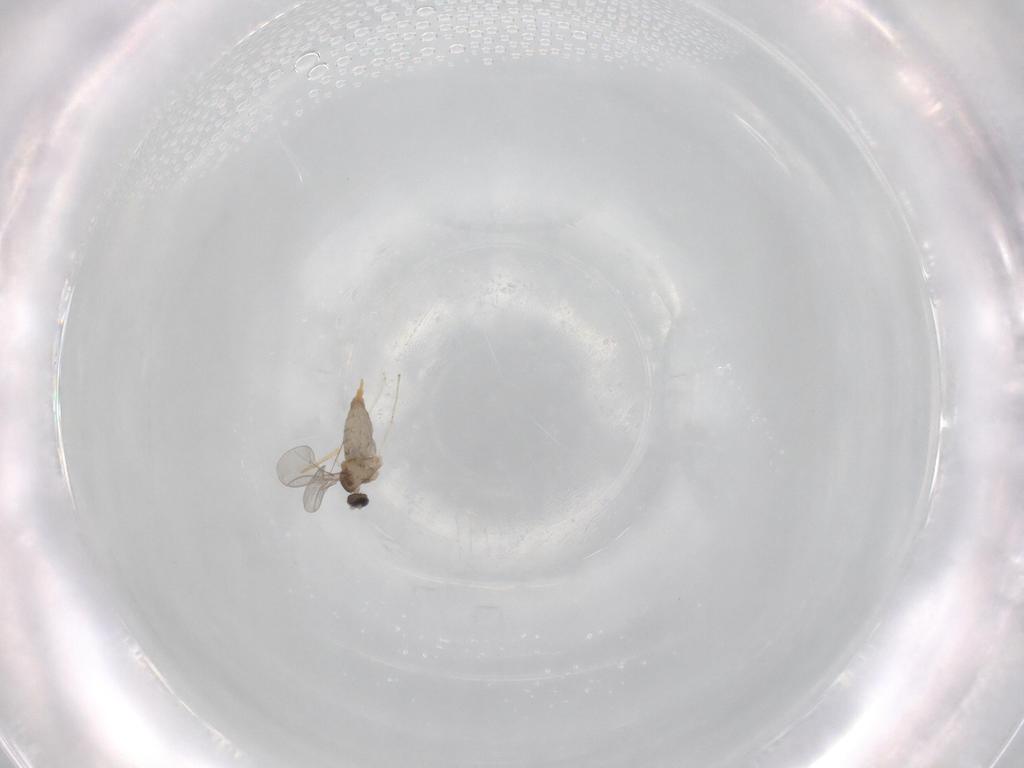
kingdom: Animalia
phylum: Arthropoda
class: Insecta
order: Diptera
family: Cecidomyiidae
